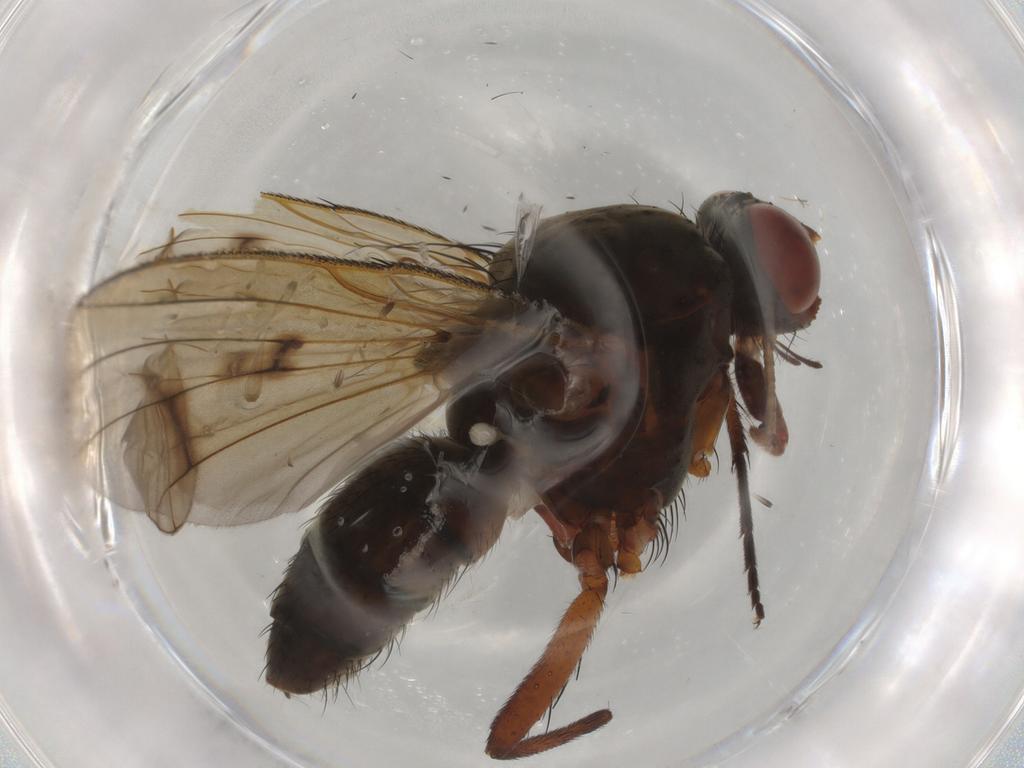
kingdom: Animalia
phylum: Arthropoda
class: Insecta
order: Diptera
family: Anthomyiidae
